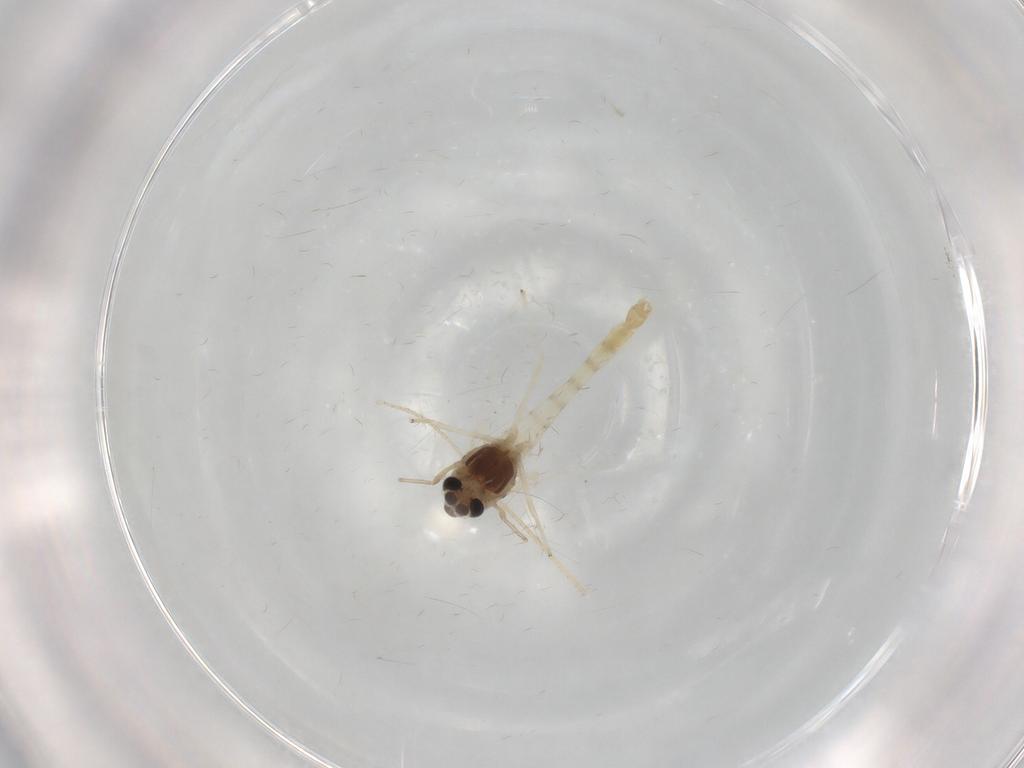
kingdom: Animalia
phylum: Arthropoda
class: Insecta
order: Diptera
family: Chironomidae
